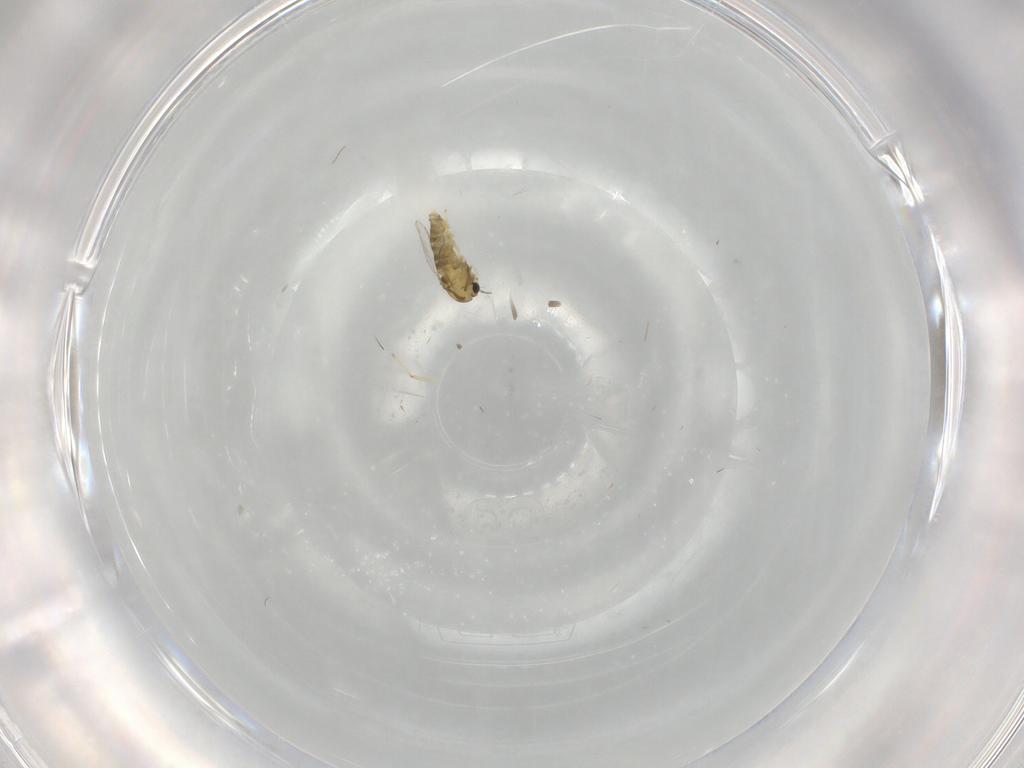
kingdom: Animalia
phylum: Arthropoda
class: Insecta
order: Diptera
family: Chironomidae
